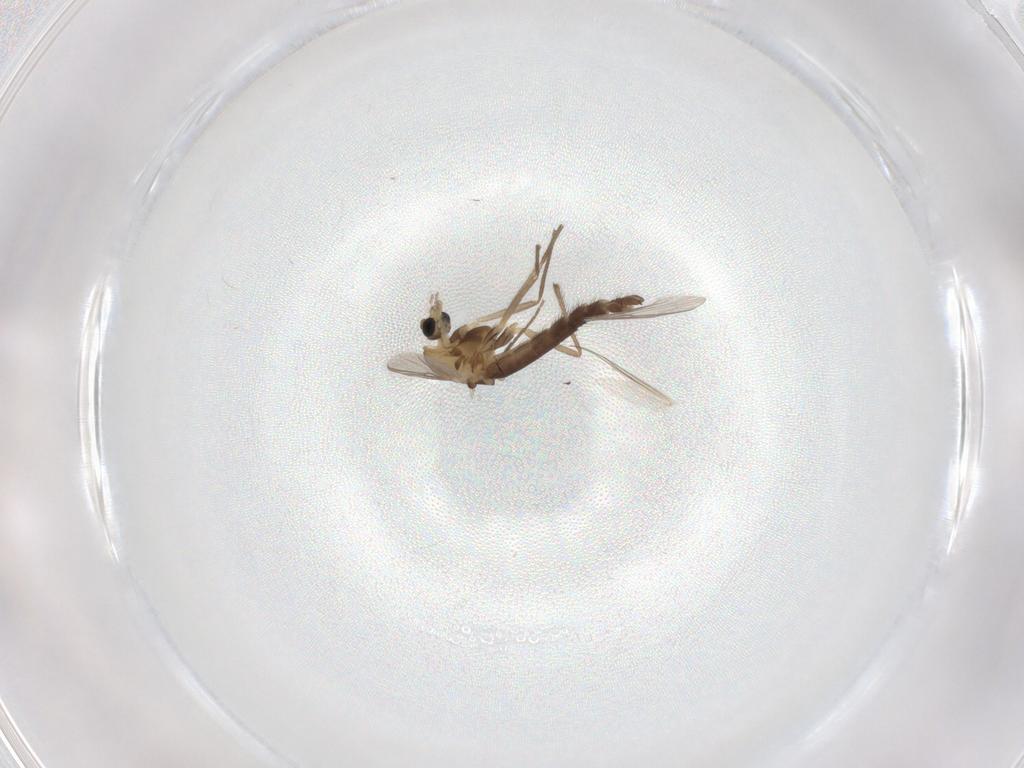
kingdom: Animalia
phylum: Arthropoda
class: Insecta
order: Diptera
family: Chironomidae
